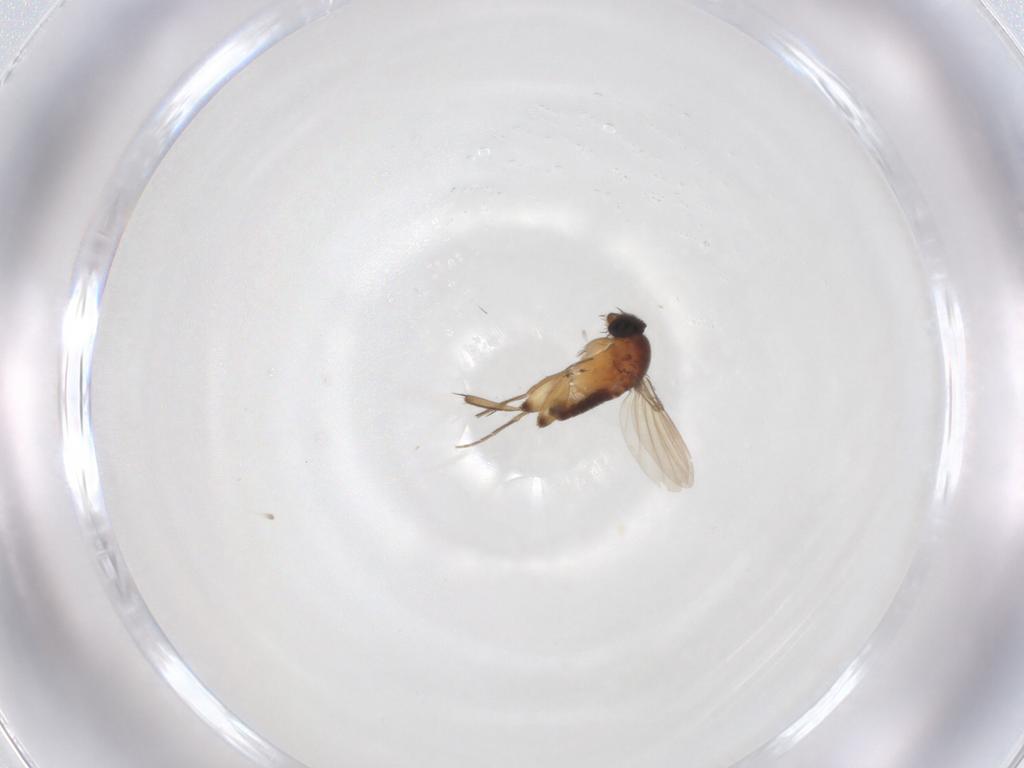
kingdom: Animalia
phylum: Arthropoda
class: Insecta
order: Diptera
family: Phoridae
